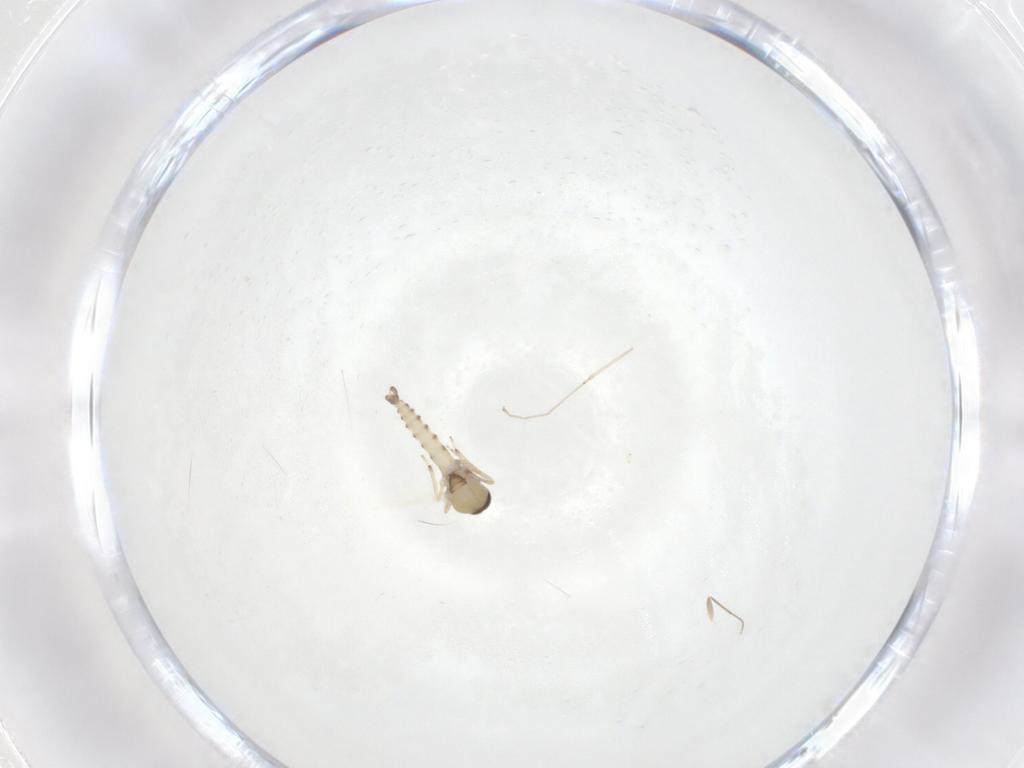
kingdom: Animalia
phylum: Arthropoda
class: Insecta
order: Diptera
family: Chironomidae
